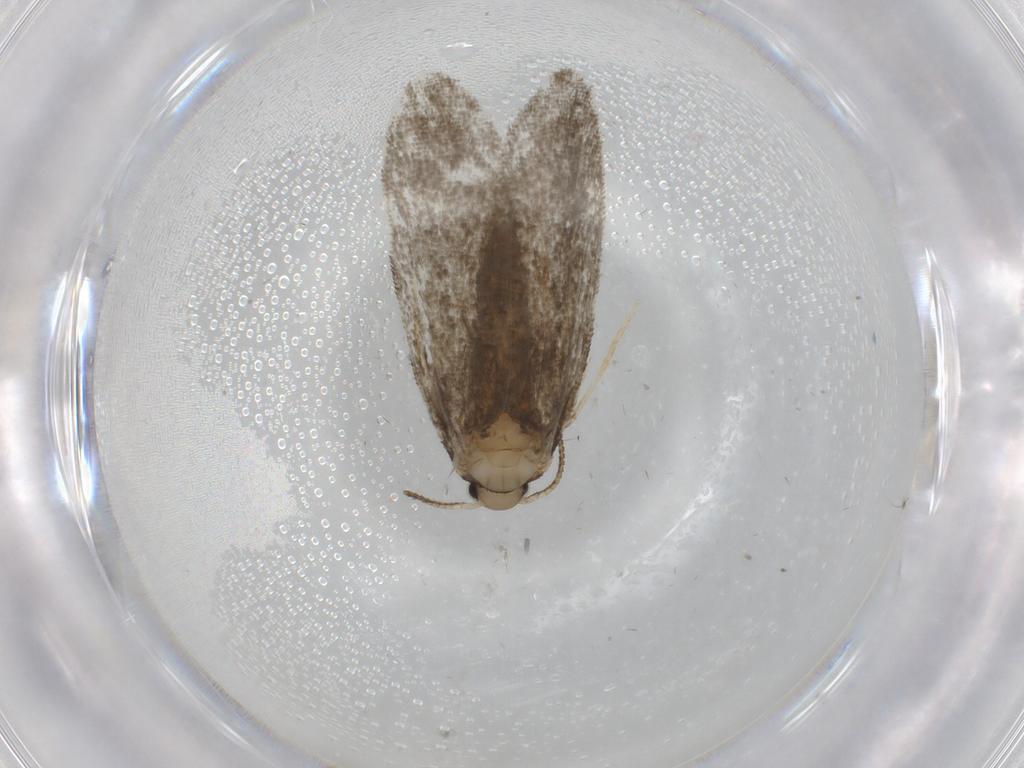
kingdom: Animalia
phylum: Arthropoda
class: Insecta
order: Lepidoptera
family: Psychidae
